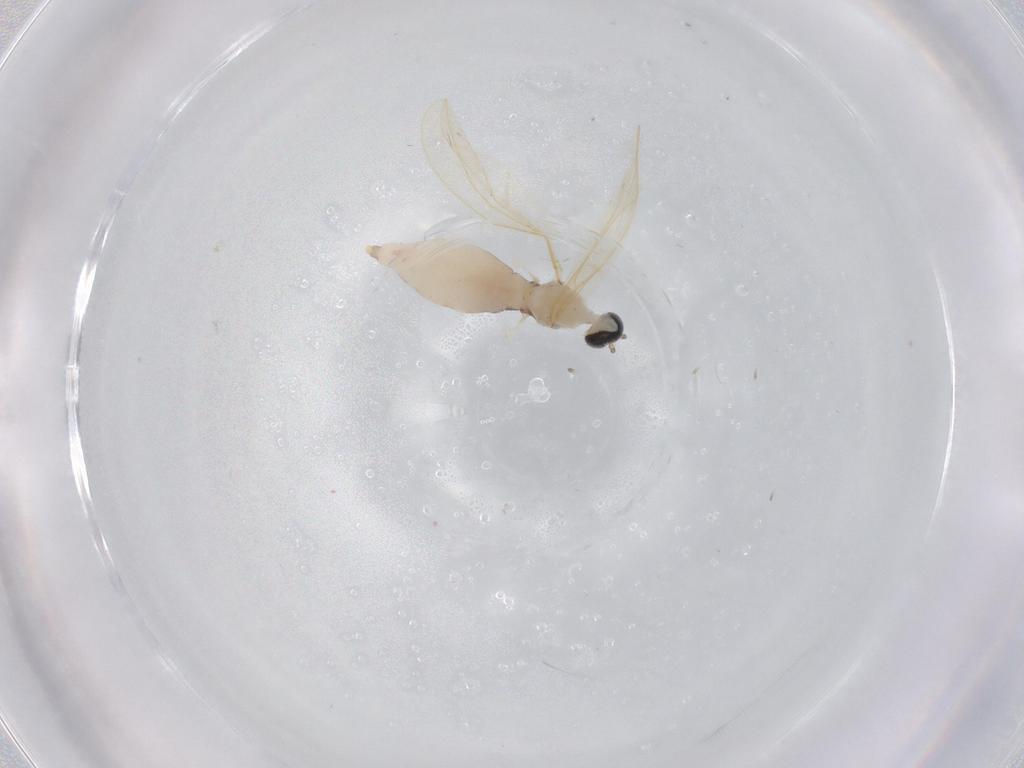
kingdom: Animalia
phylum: Arthropoda
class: Insecta
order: Diptera
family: Cecidomyiidae
